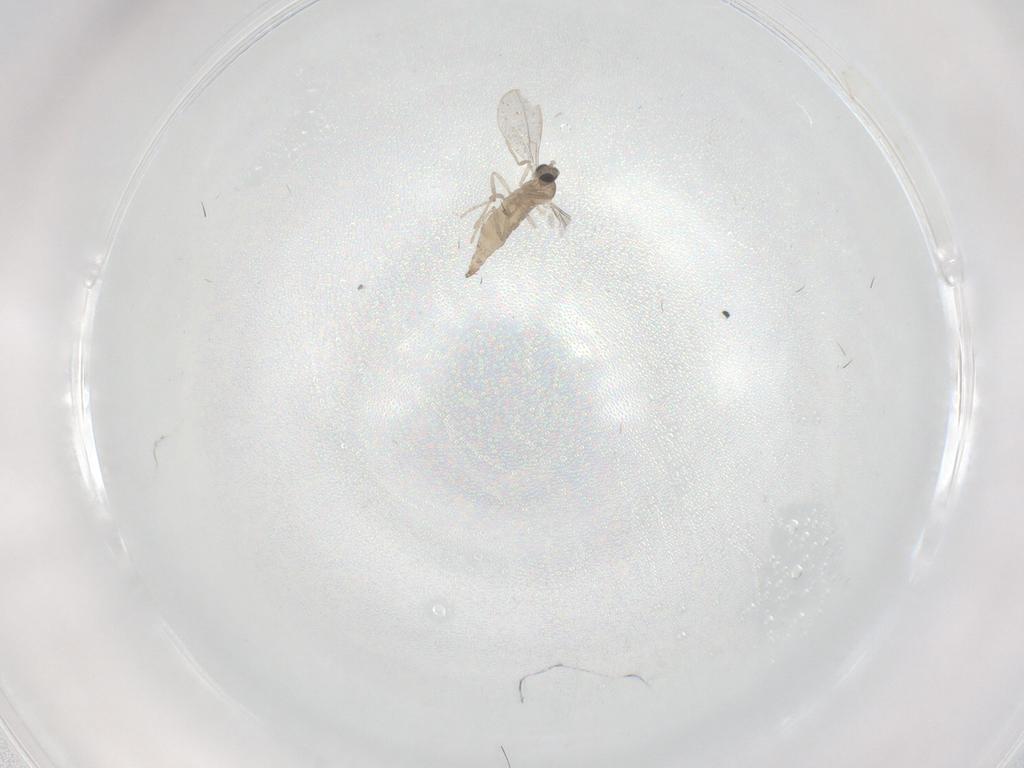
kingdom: Animalia
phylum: Arthropoda
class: Insecta
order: Diptera
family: Cecidomyiidae
